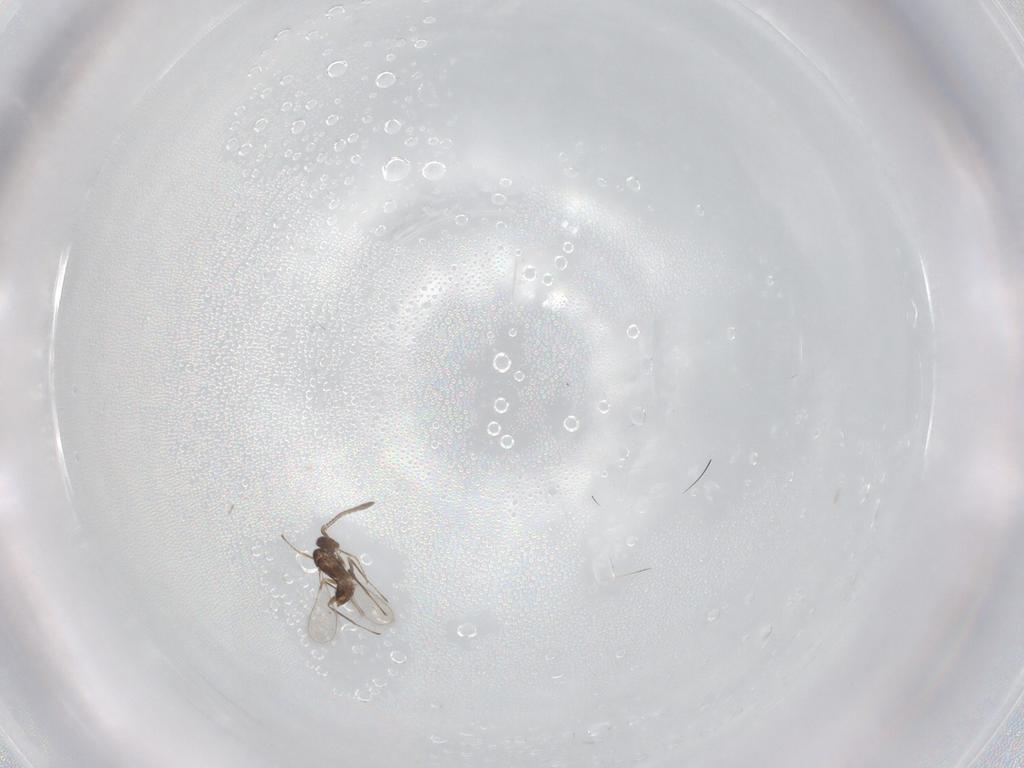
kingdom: Animalia
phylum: Arthropoda
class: Insecta
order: Hymenoptera
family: Mymaridae
